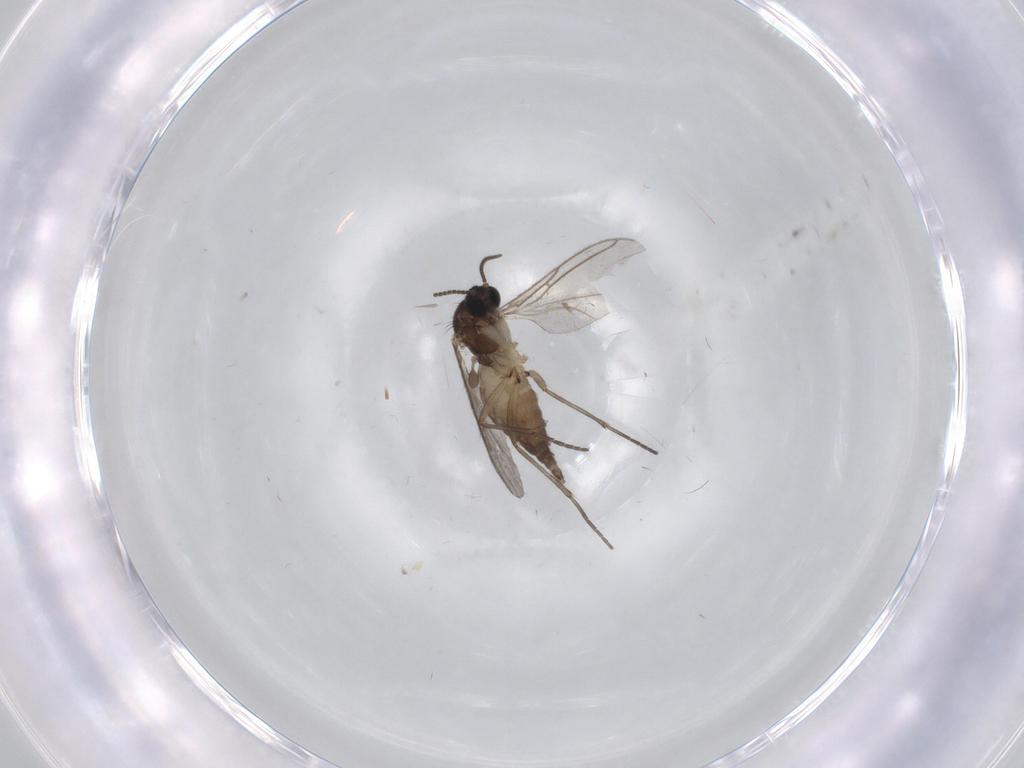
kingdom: Animalia
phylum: Arthropoda
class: Insecta
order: Diptera
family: Sciaridae
